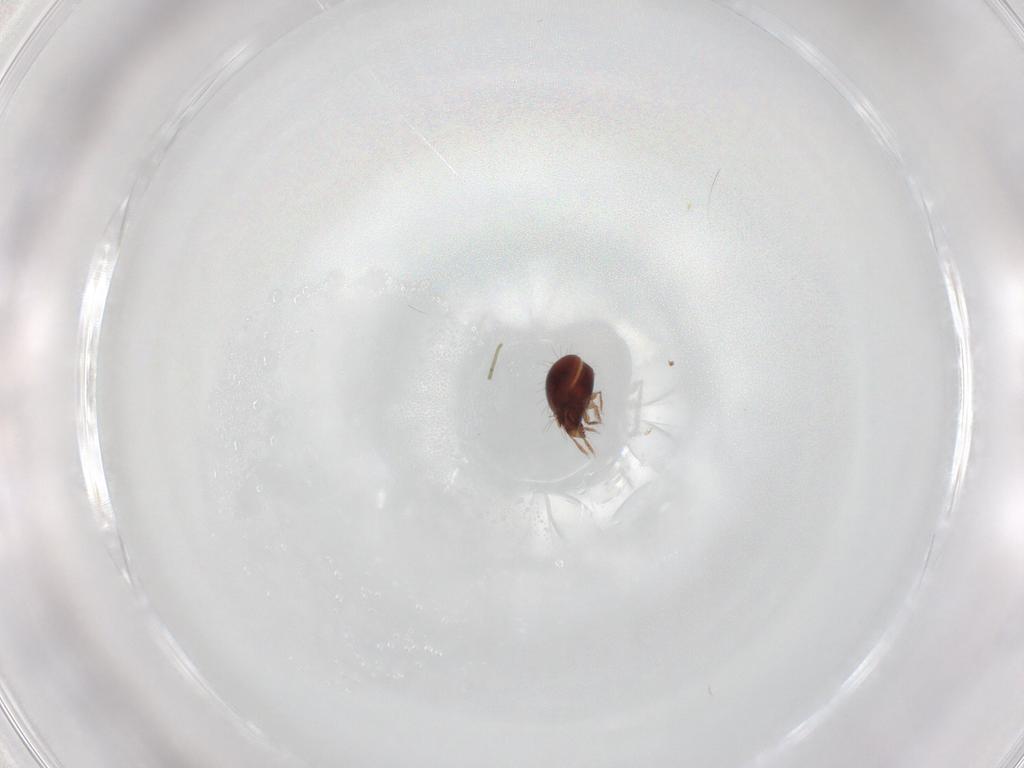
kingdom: Animalia
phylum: Arthropoda
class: Arachnida
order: Sarcoptiformes
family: Humerobatidae
